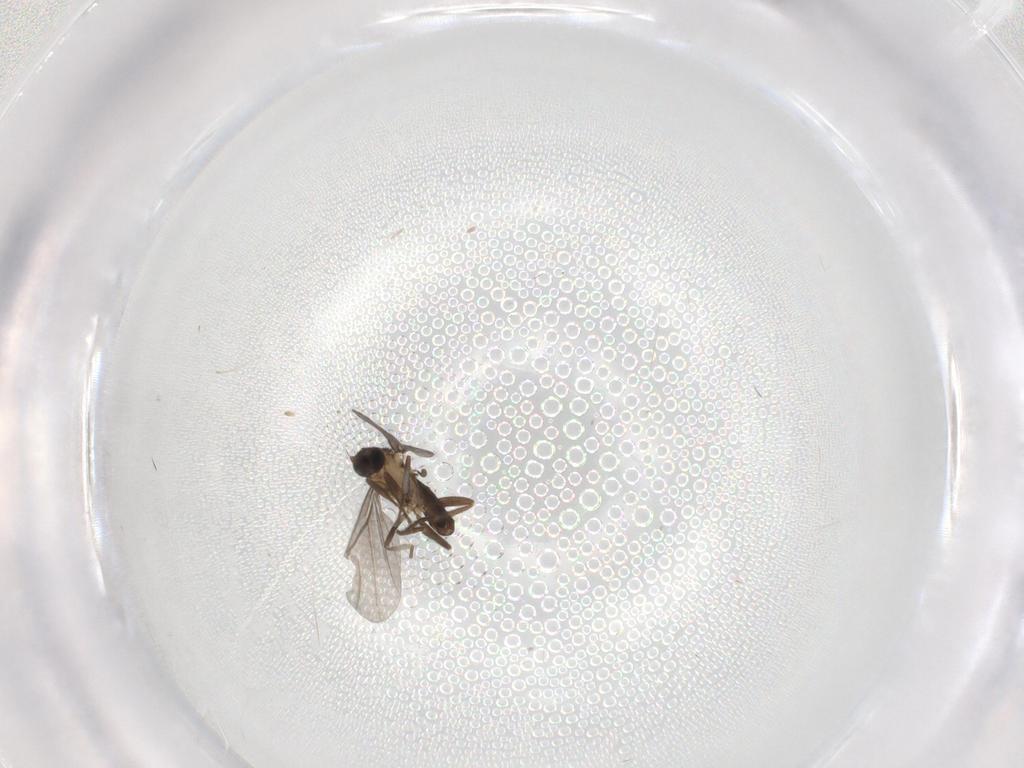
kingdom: Animalia
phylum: Arthropoda
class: Insecta
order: Diptera
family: Phoridae
